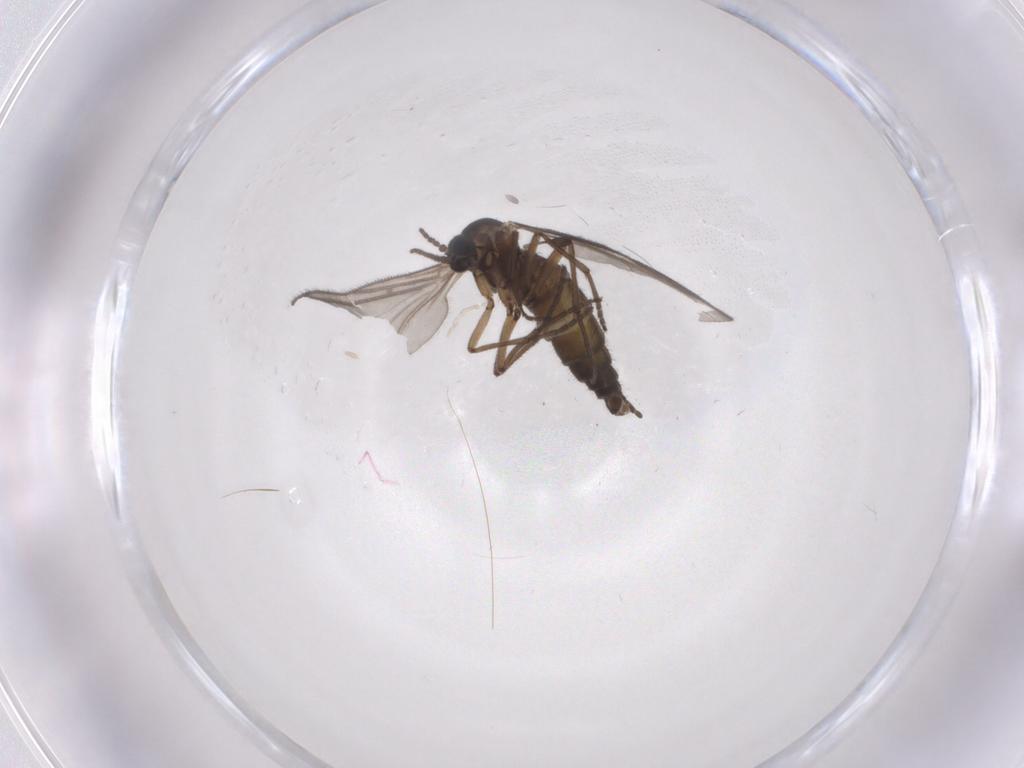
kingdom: Animalia
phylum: Arthropoda
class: Insecta
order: Diptera
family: Sciaridae
